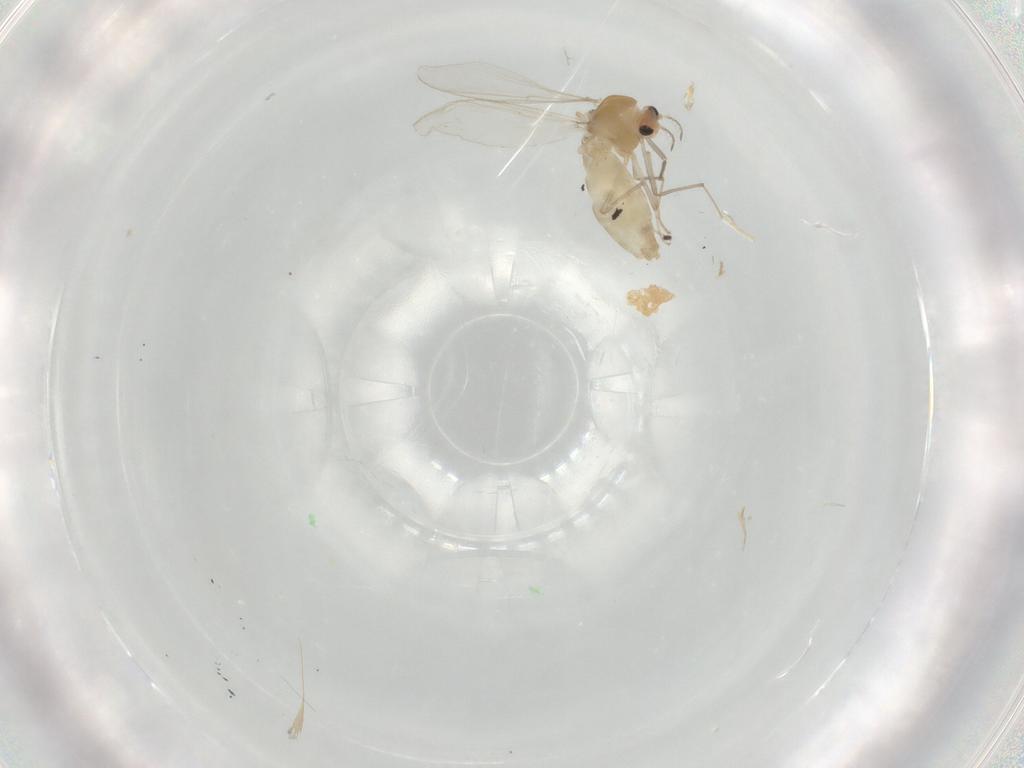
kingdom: Animalia
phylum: Arthropoda
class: Insecta
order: Diptera
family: Chironomidae
